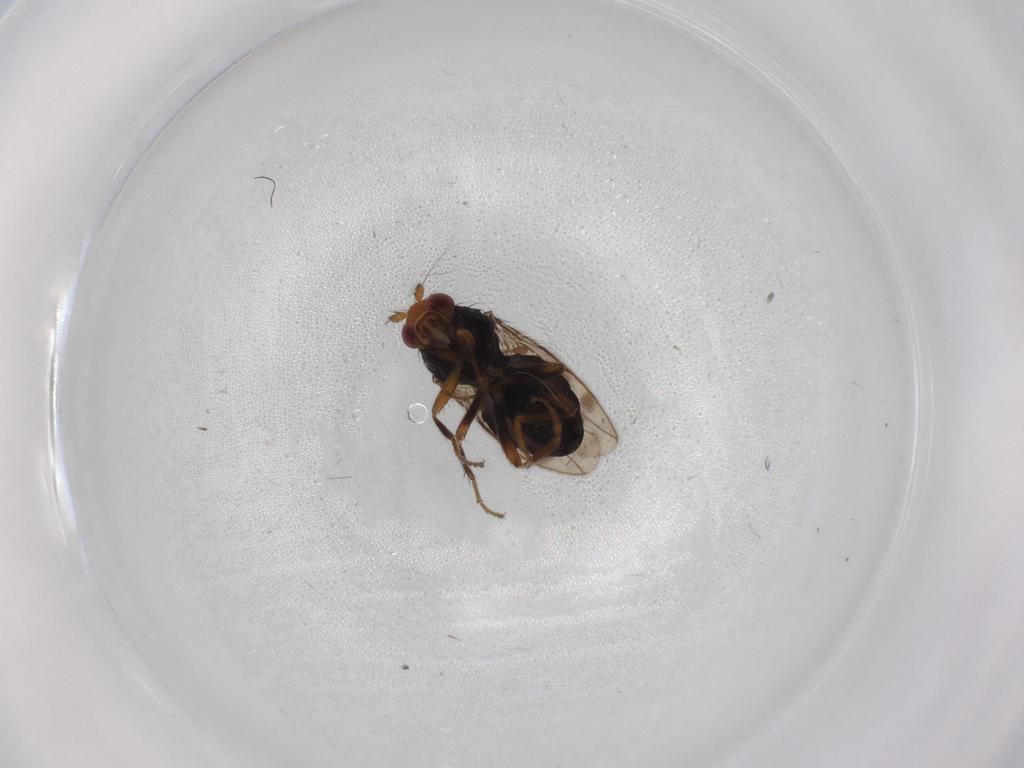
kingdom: Animalia
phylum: Arthropoda
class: Insecta
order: Diptera
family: Sphaeroceridae
